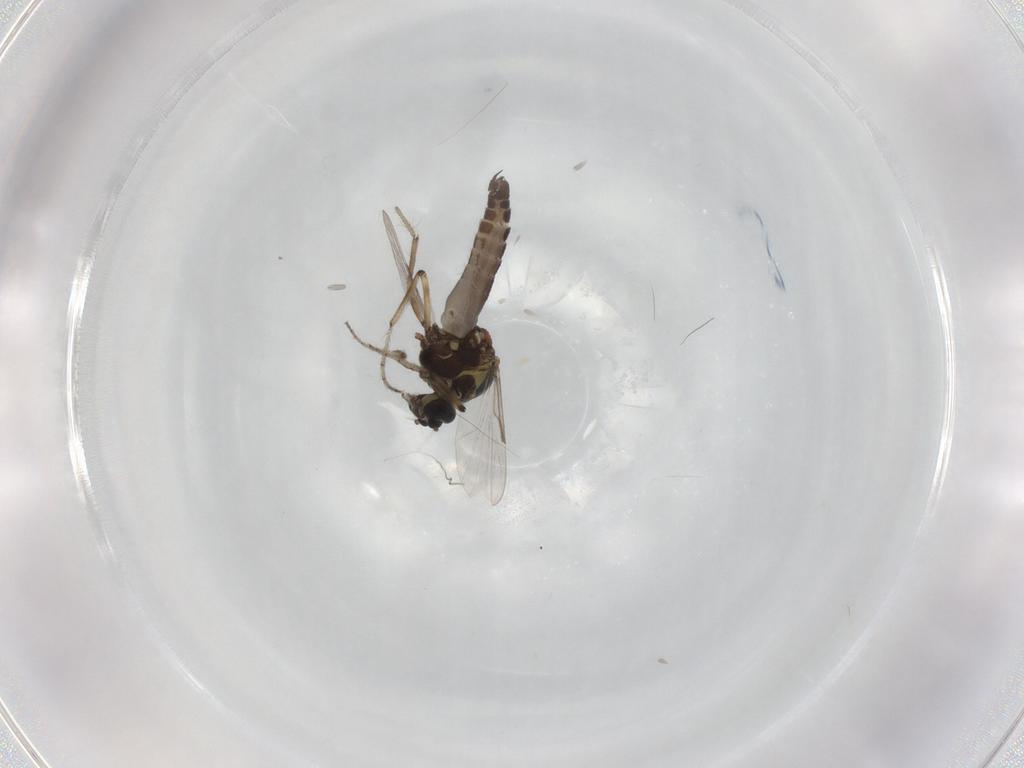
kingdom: Animalia
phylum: Arthropoda
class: Insecta
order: Diptera
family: Ceratopogonidae
